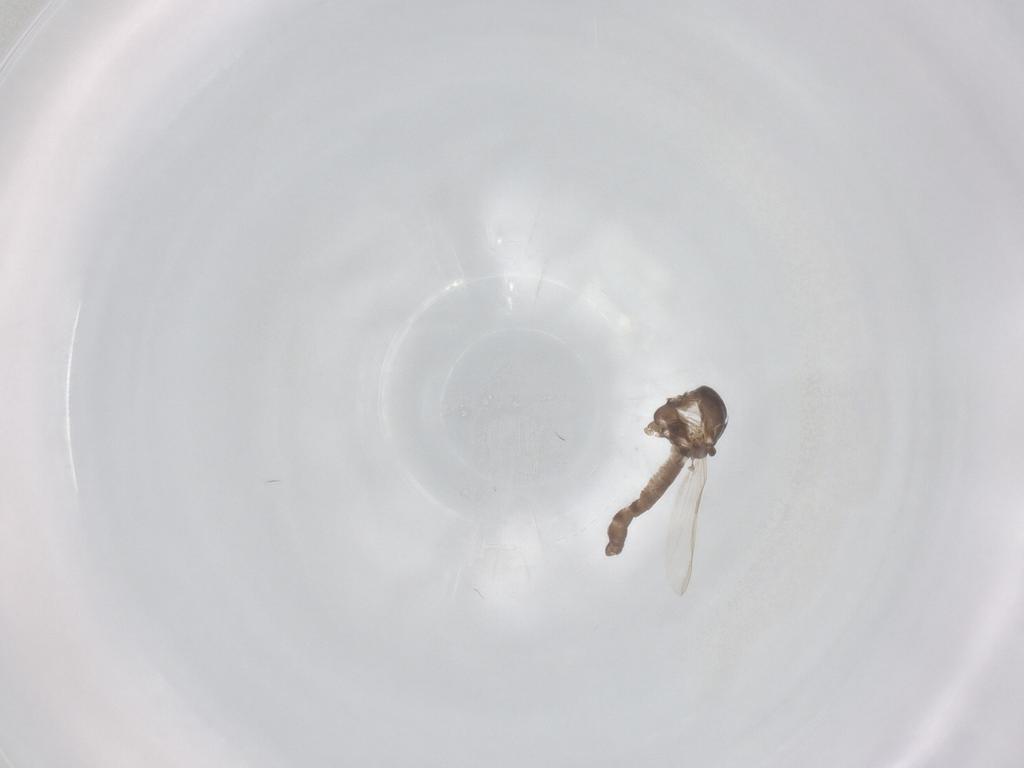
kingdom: Animalia
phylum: Arthropoda
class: Insecta
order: Diptera
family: Ceratopogonidae
